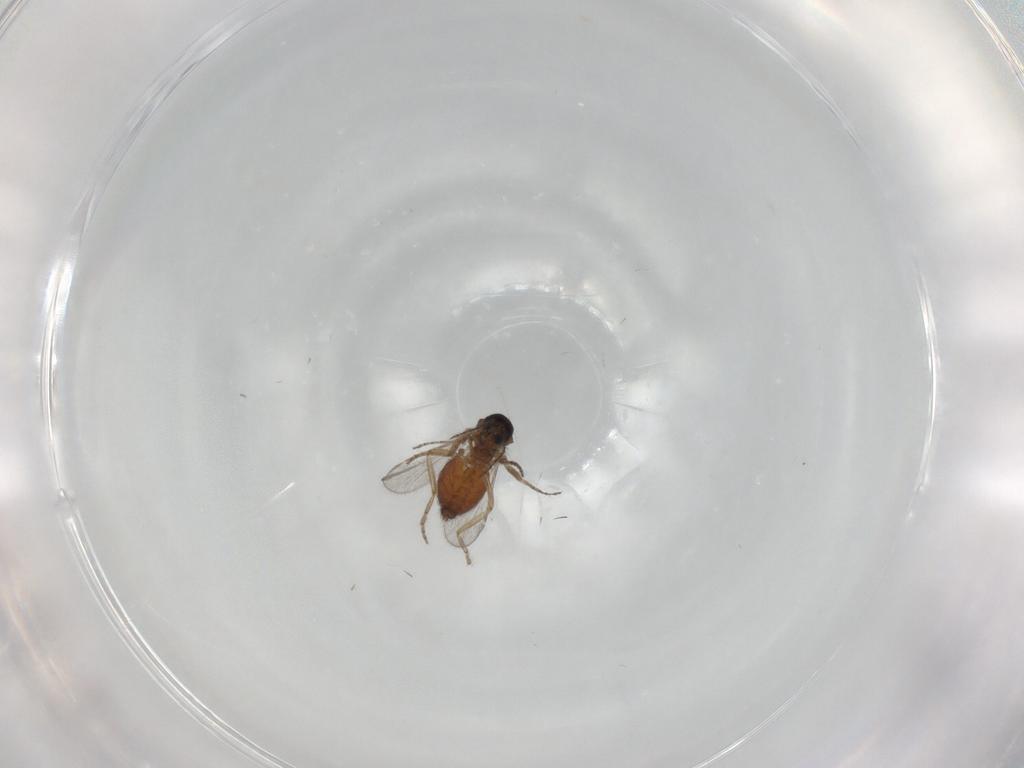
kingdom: Animalia
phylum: Arthropoda
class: Insecta
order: Diptera
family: Ceratopogonidae
